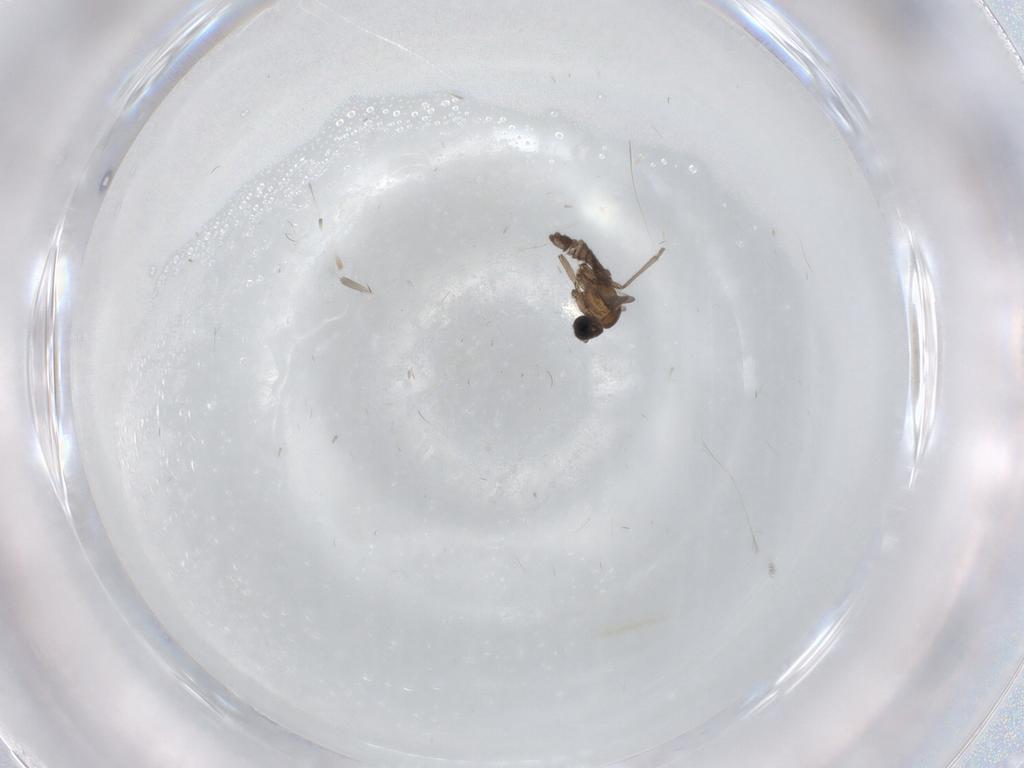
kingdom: Animalia
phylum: Arthropoda
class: Insecta
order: Diptera
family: Sciaridae
